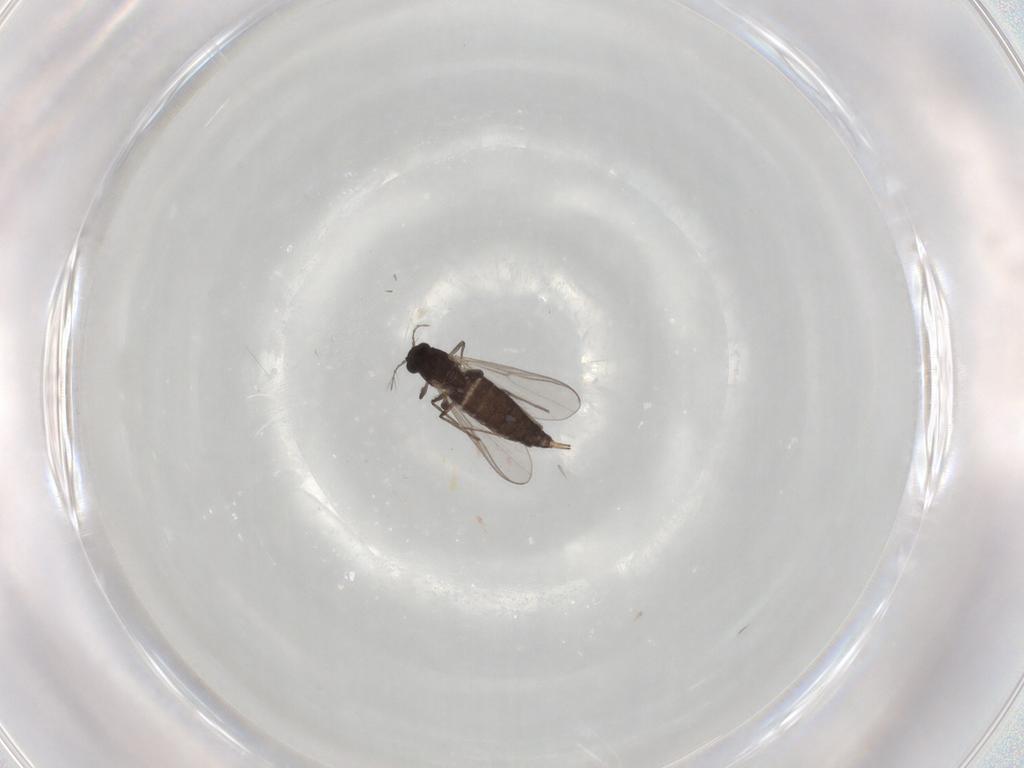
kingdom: Animalia
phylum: Arthropoda
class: Insecta
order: Diptera
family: Chironomidae
